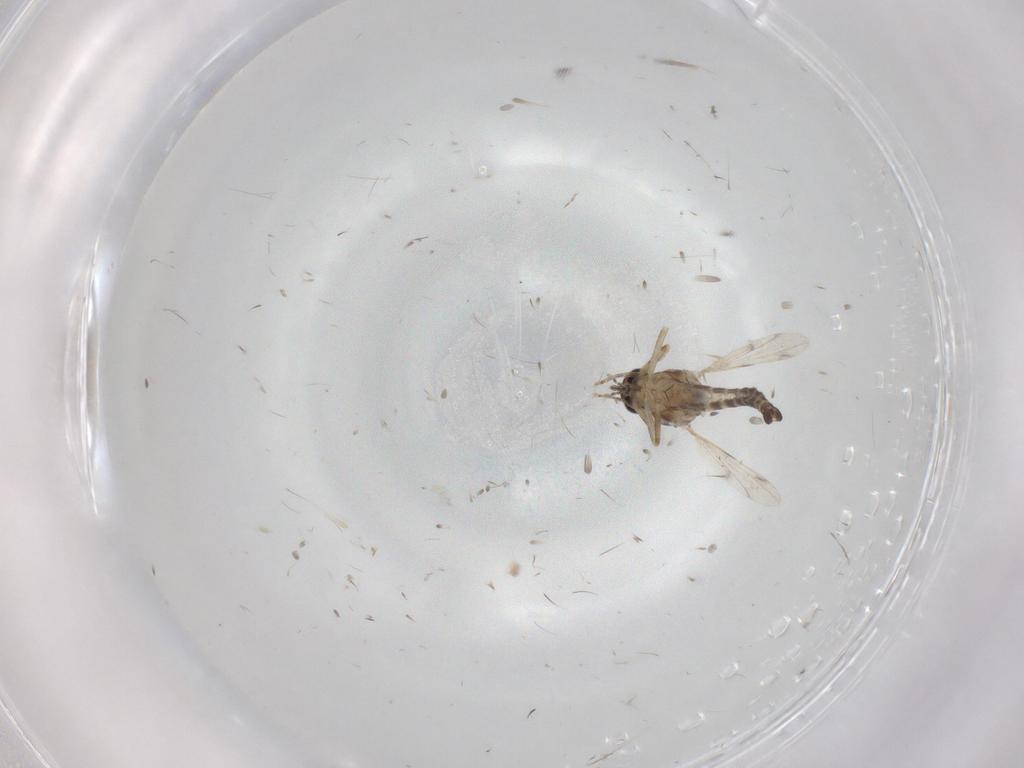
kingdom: Animalia
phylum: Arthropoda
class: Insecta
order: Diptera
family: Ceratopogonidae
